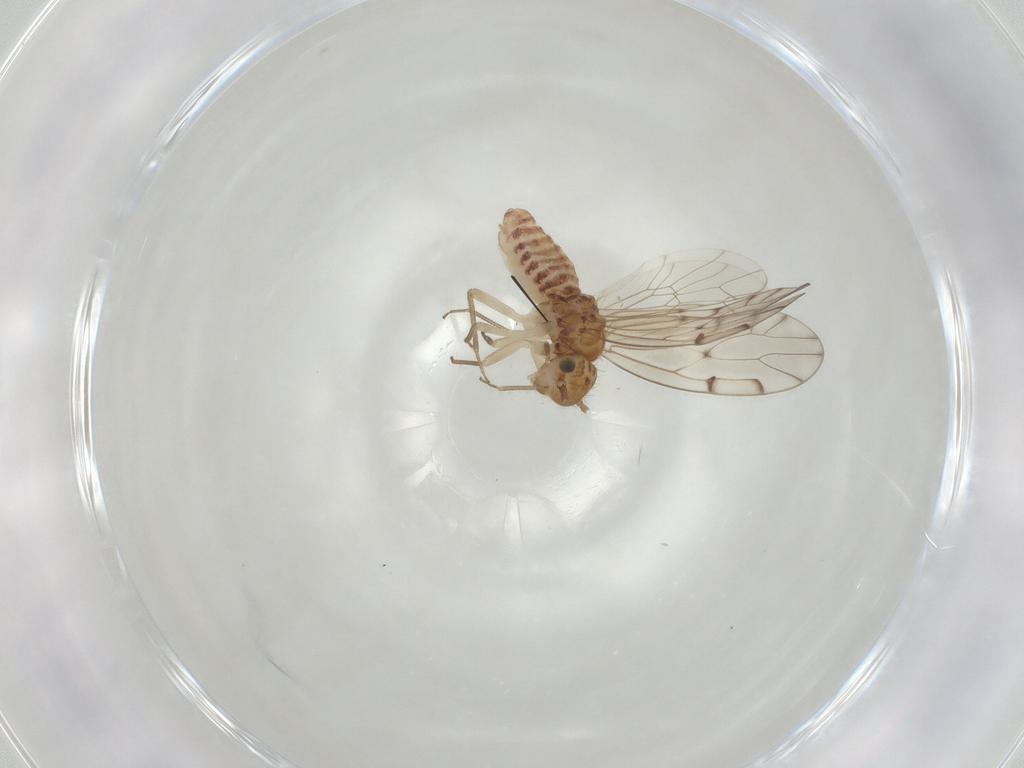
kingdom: Animalia
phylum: Arthropoda
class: Insecta
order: Psocodea
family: Ectopsocidae
